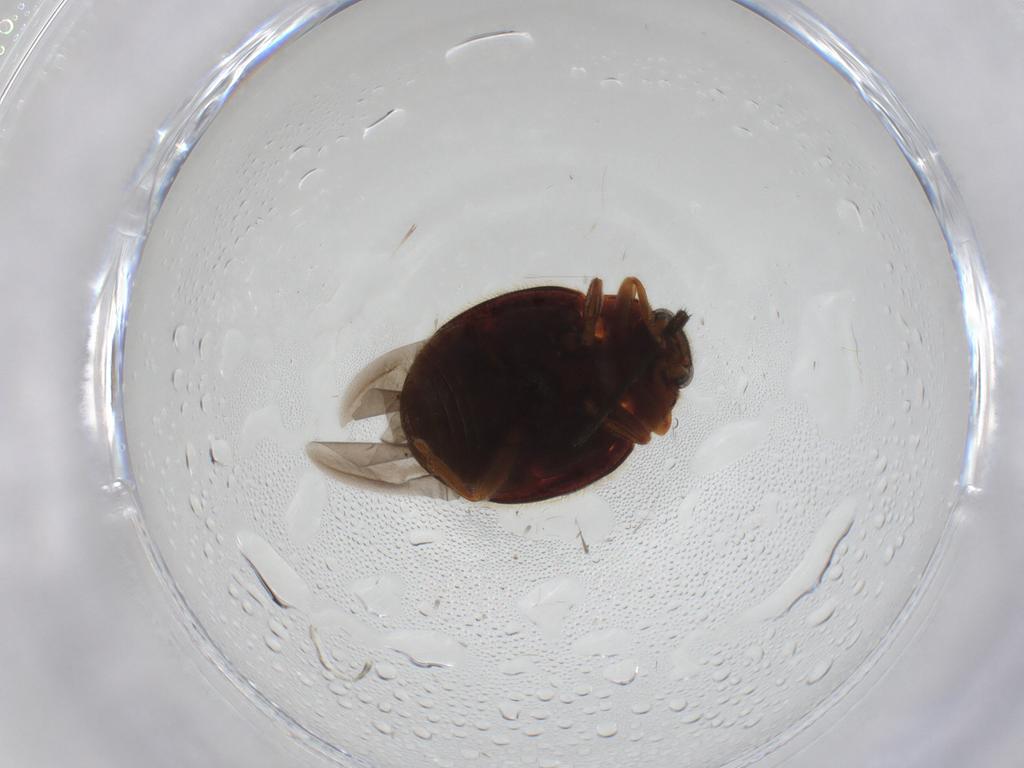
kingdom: Animalia
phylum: Arthropoda
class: Insecta
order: Coleoptera
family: Coccinellidae
